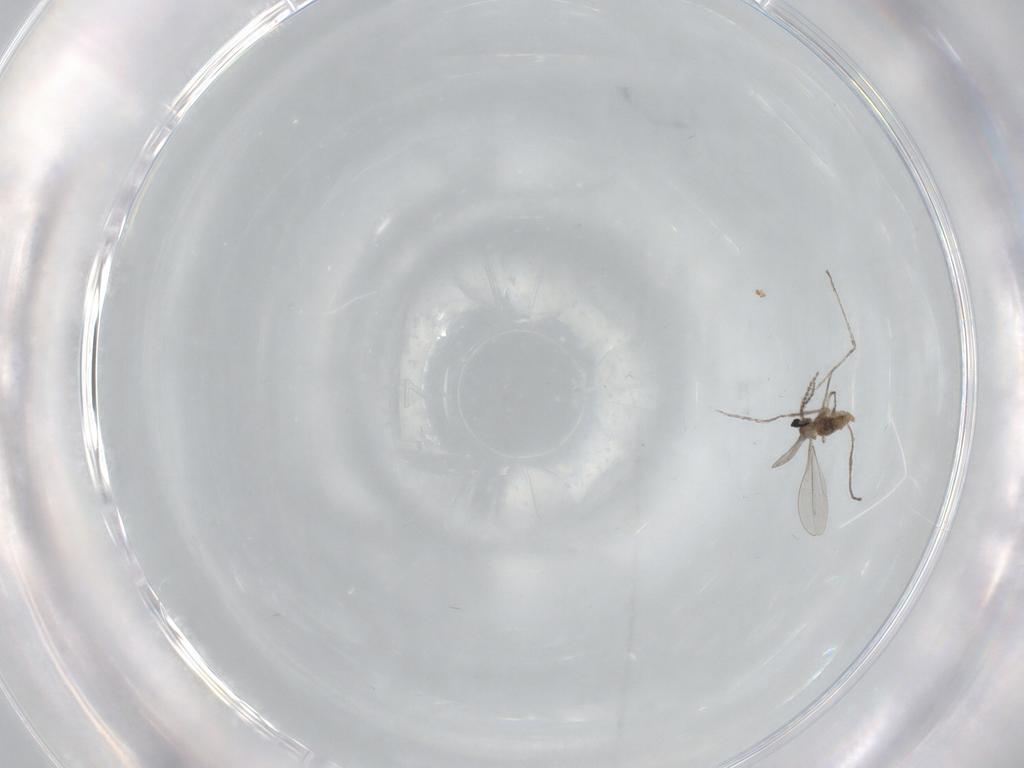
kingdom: Animalia
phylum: Arthropoda
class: Insecta
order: Diptera
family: Cecidomyiidae
